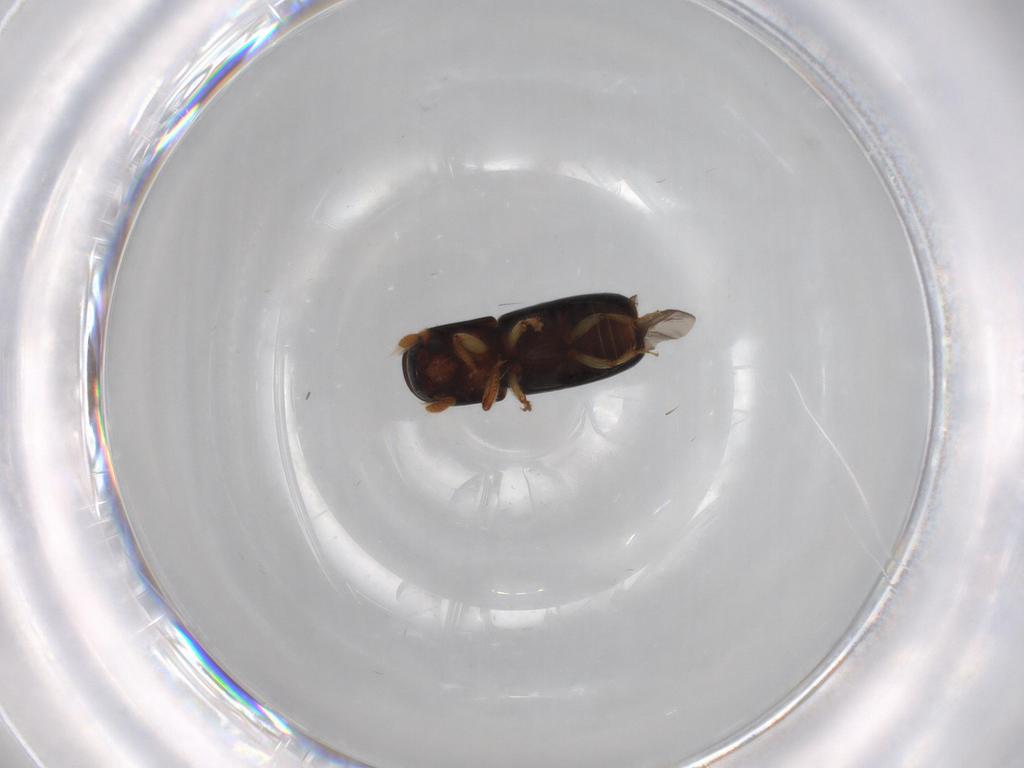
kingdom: Animalia
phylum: Arthropoda
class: Insecta
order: Coleoptera
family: Curculionidae
